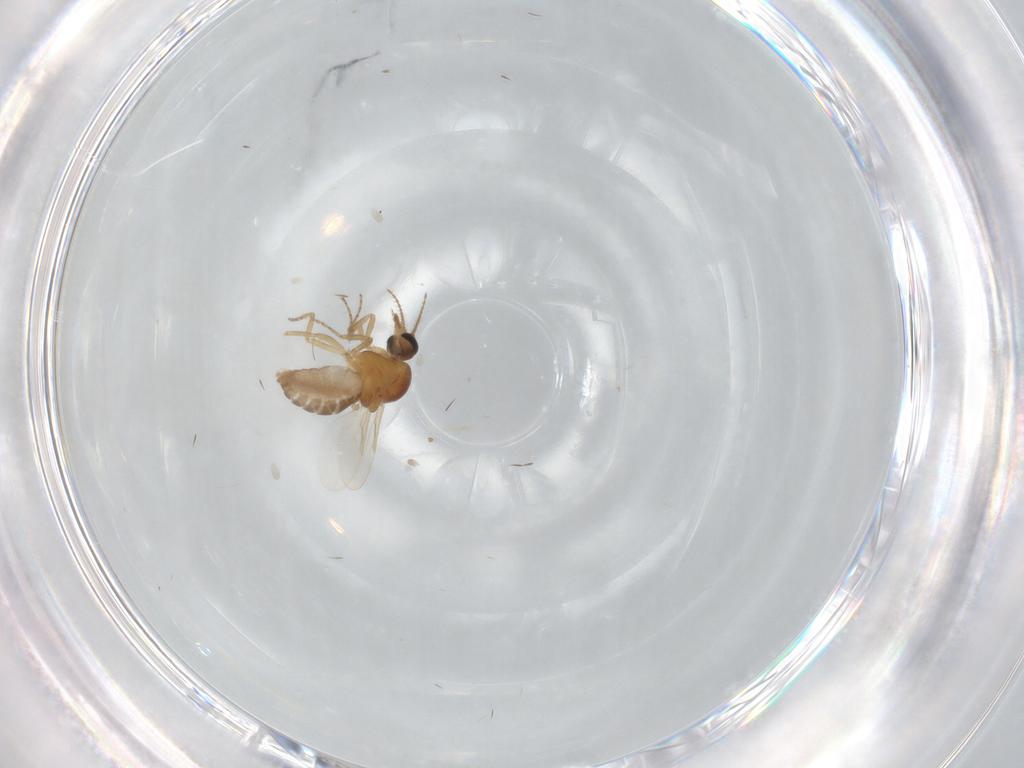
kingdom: Animalia
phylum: Arthropoda
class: Insecta
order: Diptera
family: Ceratopogonidae
